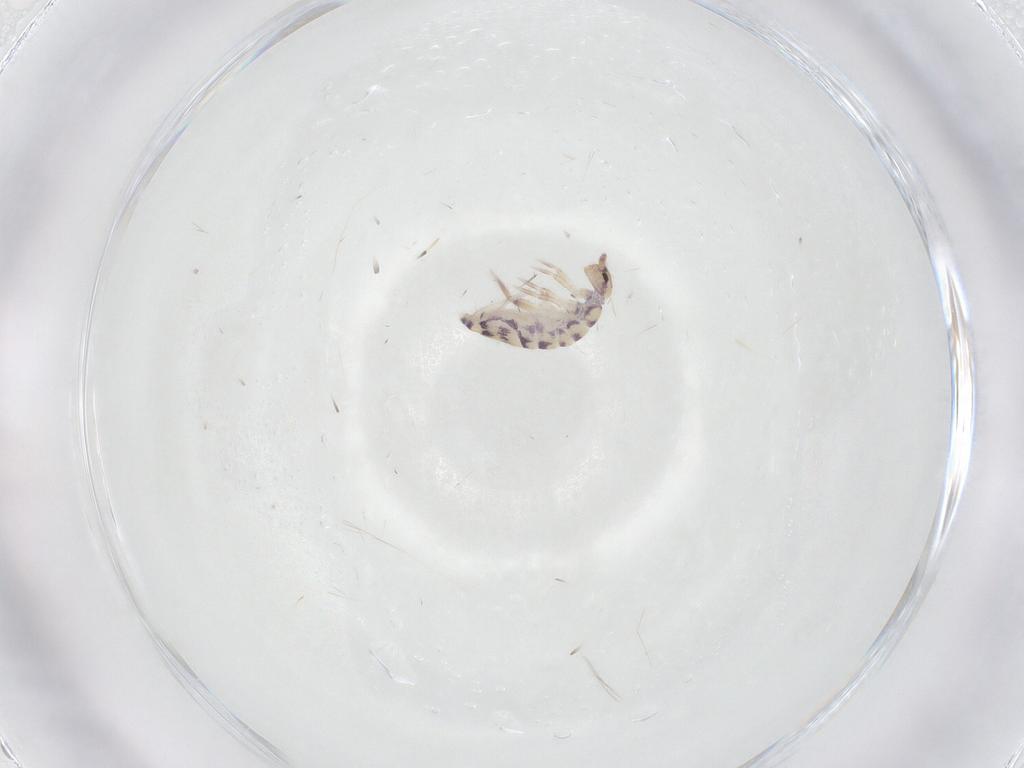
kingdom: Animalia
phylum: Arthropoda
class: Collembola
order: Entomobryomorpha
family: Entomobryidae
